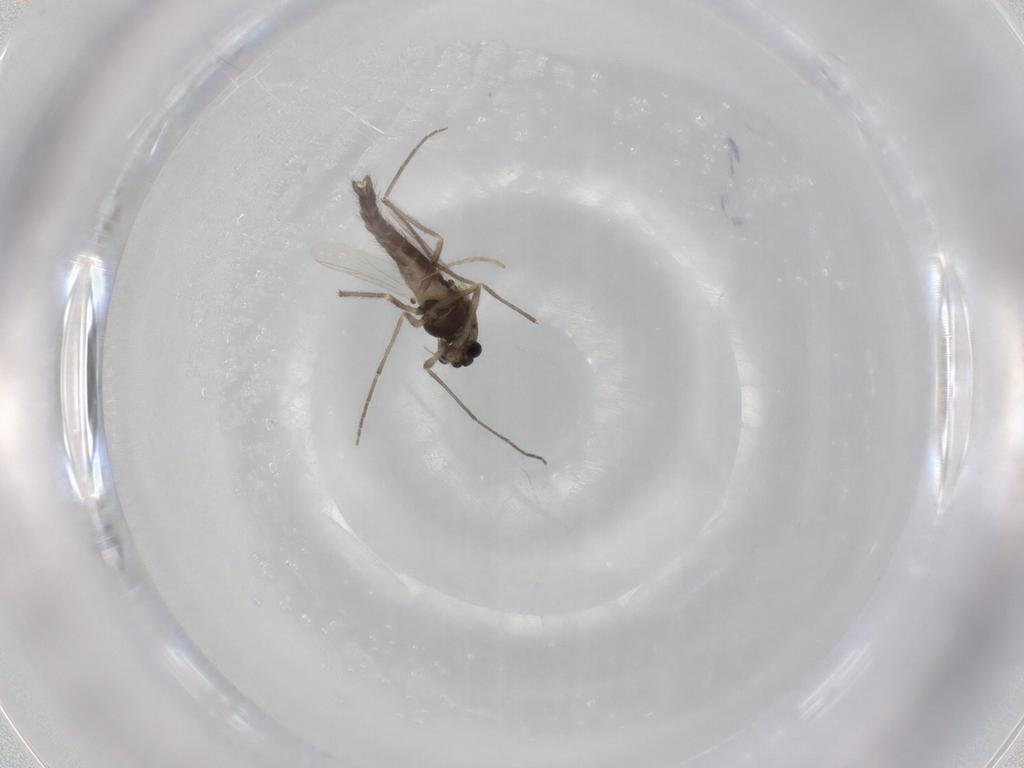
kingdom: Animalia
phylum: Arthropoda
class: Insecta
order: Diptera
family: Chironomidae
